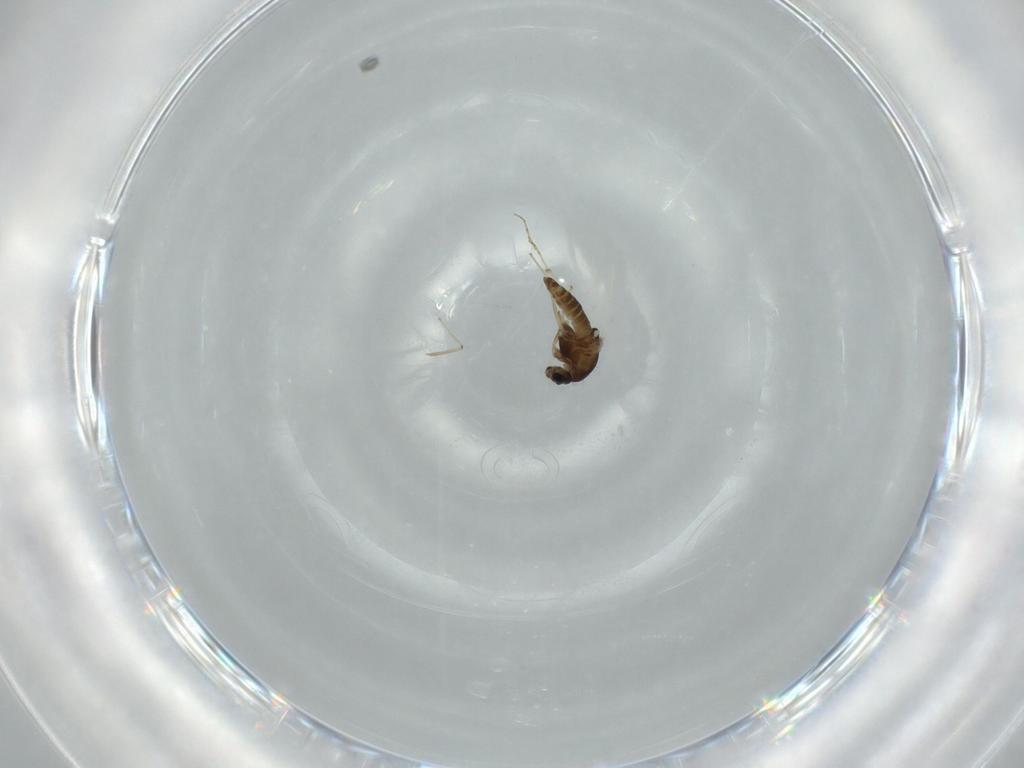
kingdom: Animalia
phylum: Arthropoda
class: Insecta
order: Diptera
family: Chironomidae
